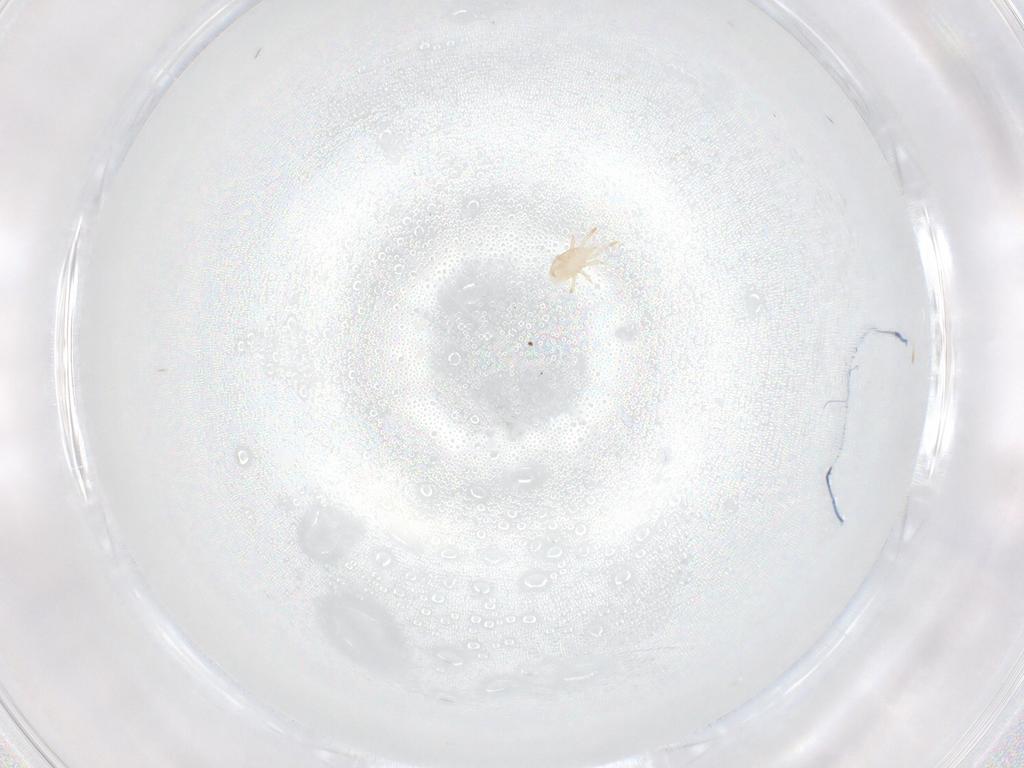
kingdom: Animalia
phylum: Arthropoda
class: Arachnida
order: Mesostigmata
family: Laelapidae
